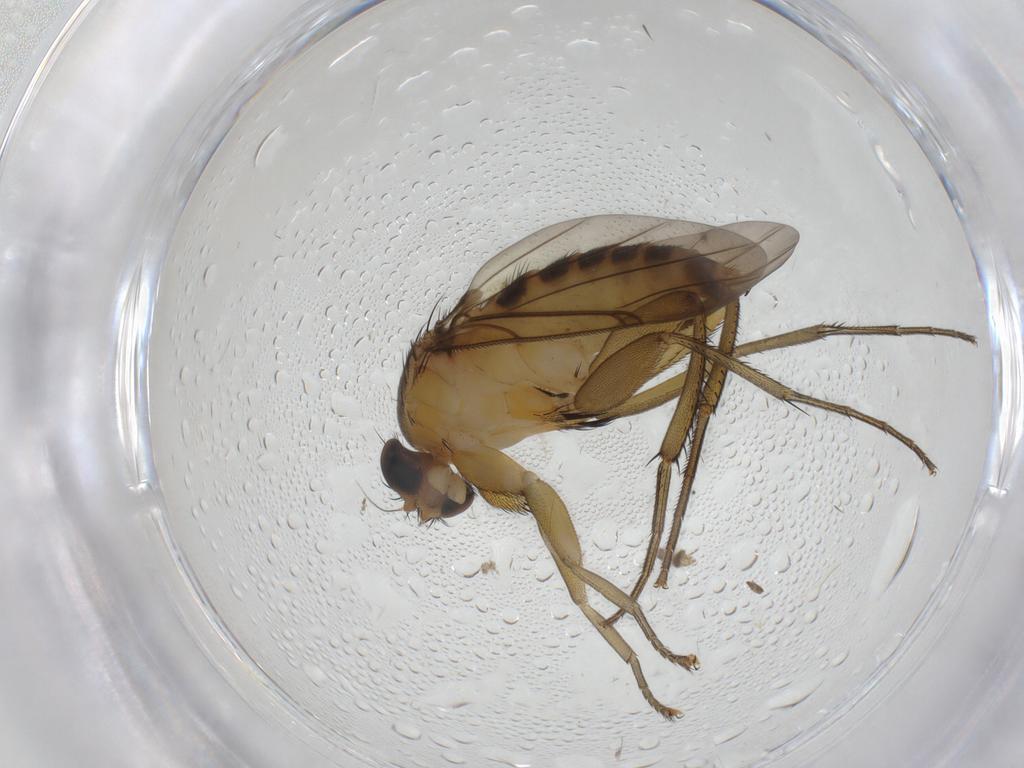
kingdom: Animalia
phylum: Arthropoda
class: Insecta
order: Diptera
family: Phoridae
